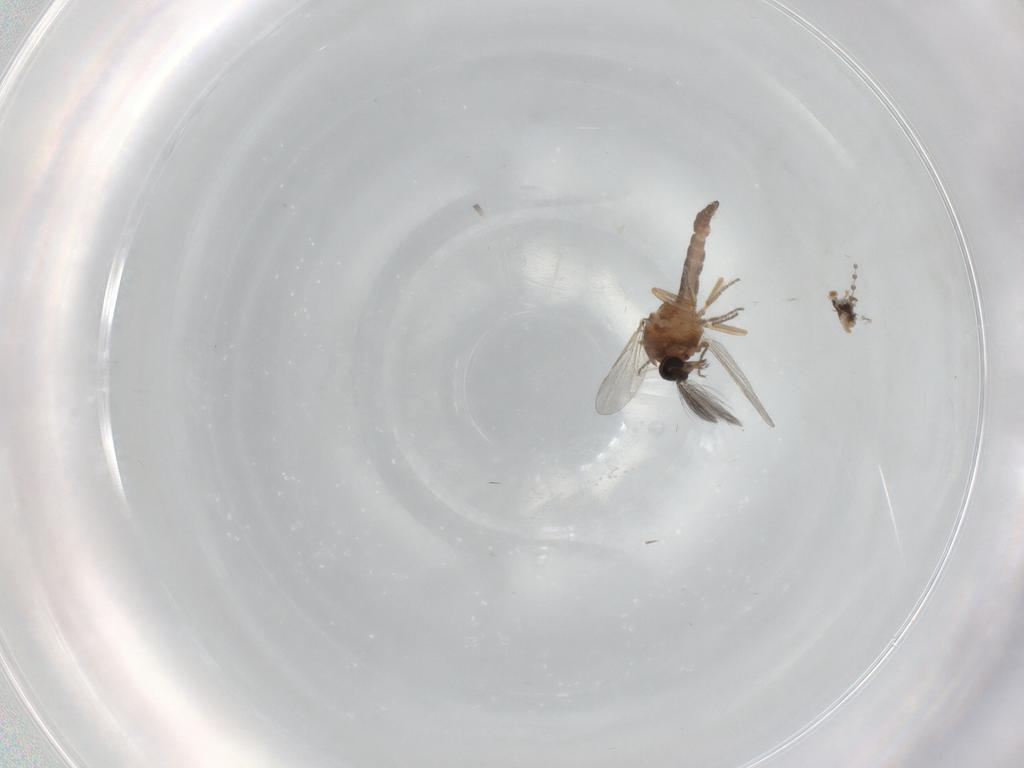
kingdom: Animalia
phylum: Arthropoda
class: Insecta
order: Diptera
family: Ceratopogonidae
